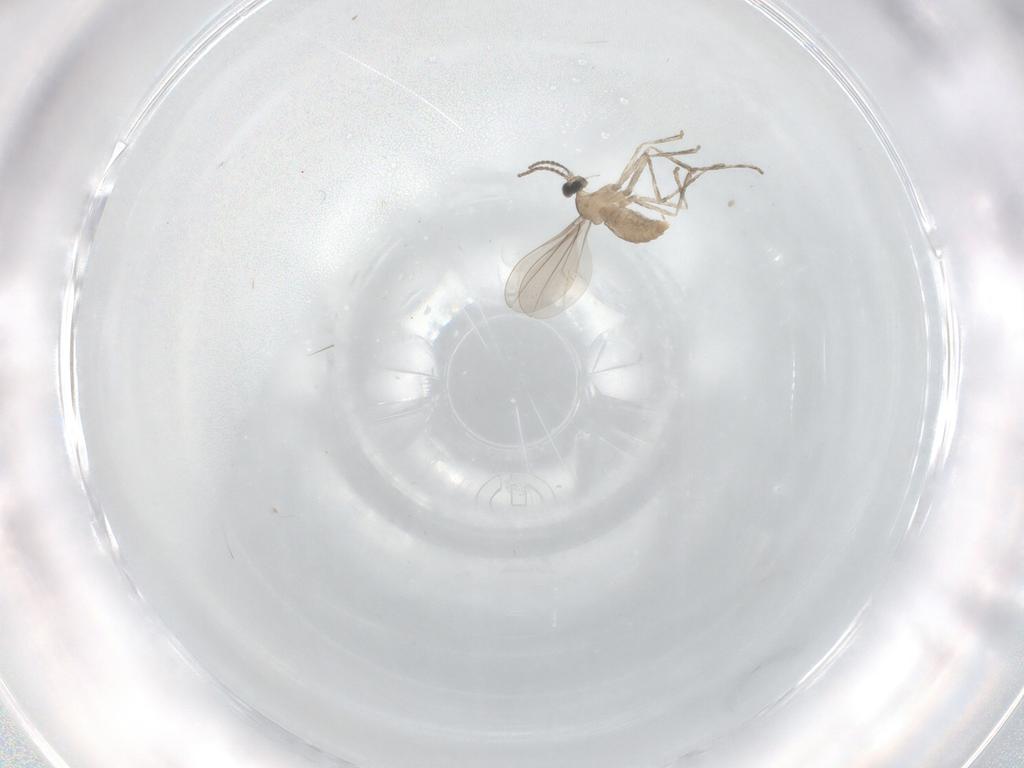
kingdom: Animalia
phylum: Arthropoda
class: Insecta
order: Diptera
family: Cecidomyiidae
